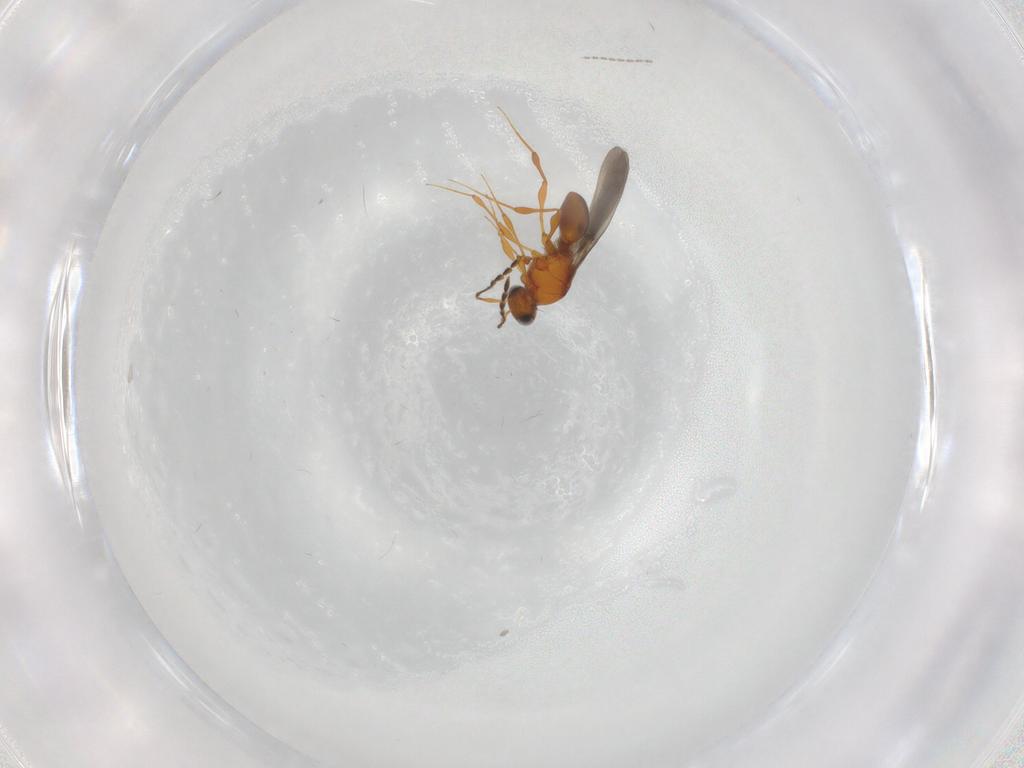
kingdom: Animalia
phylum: Arthropoda
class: Insecta
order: Hymenoptera
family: Platygastridae
